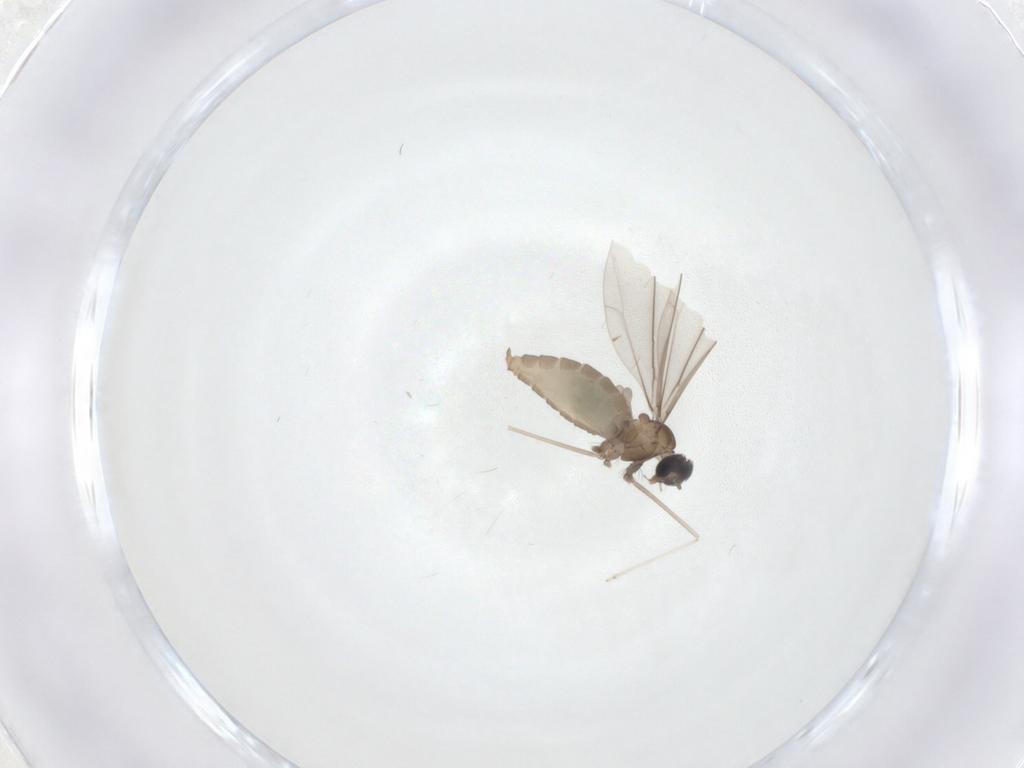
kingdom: Animalia
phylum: Arthropoda
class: Insecta
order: Diptera
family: Cecidomyiidae
